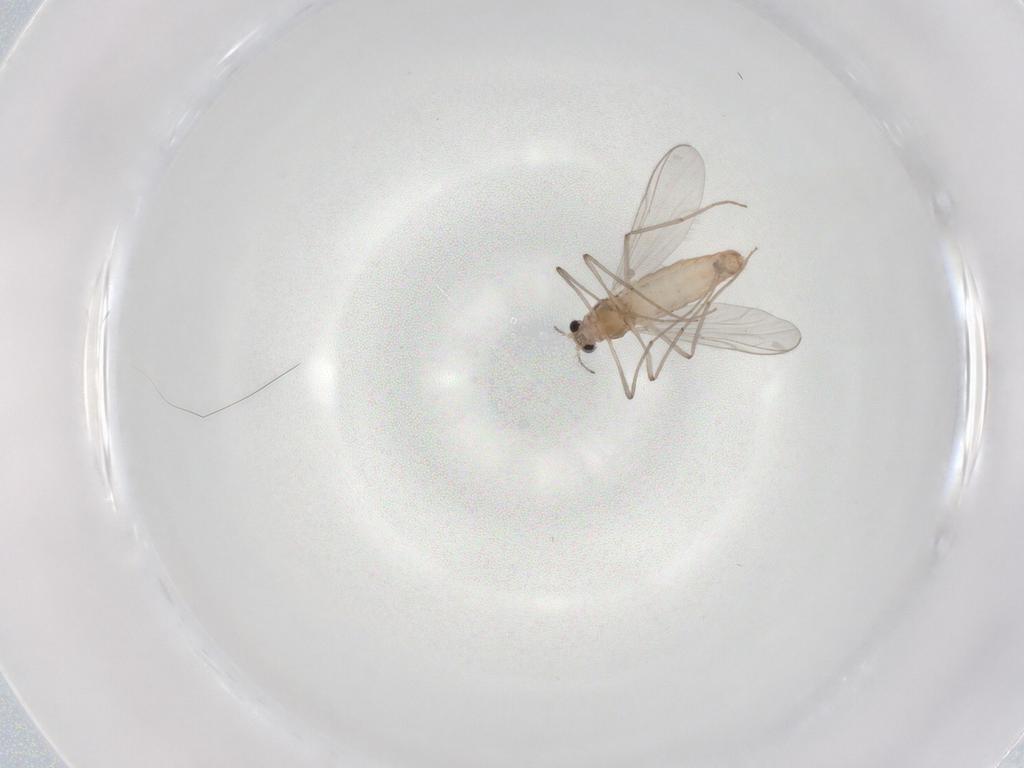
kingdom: Animalia
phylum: Arthropoda
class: Insecta
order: Diptera
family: Chironomidae
